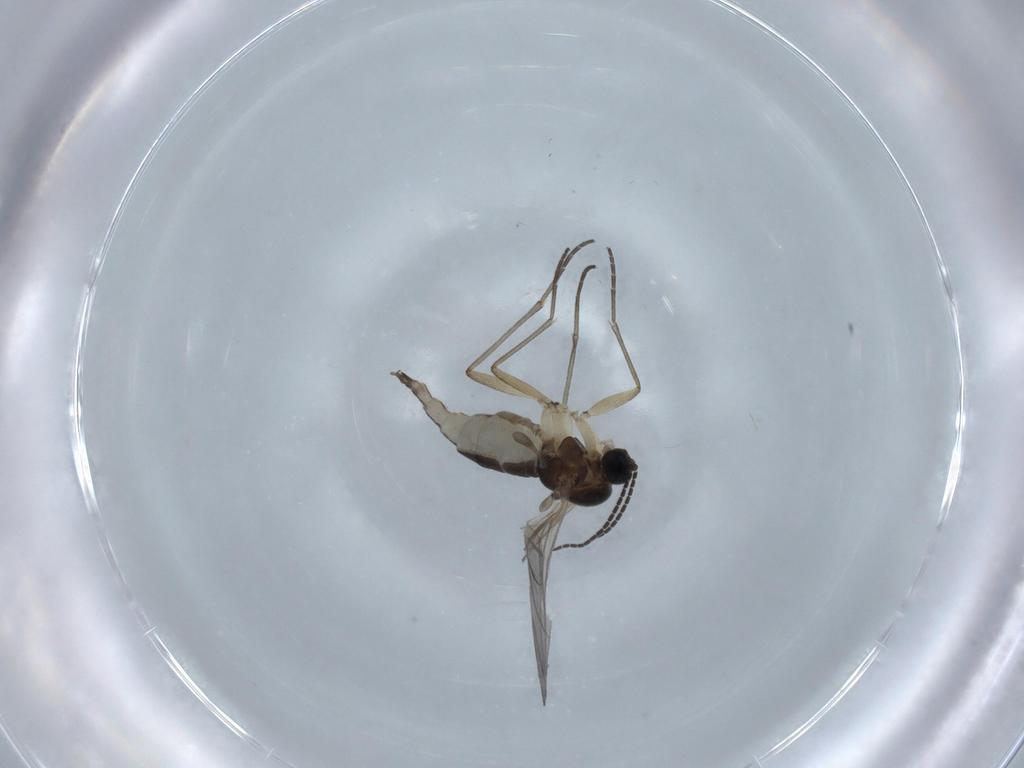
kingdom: Animalia
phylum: Arthropoda
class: Insecta
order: Diptera
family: Sciaridae
